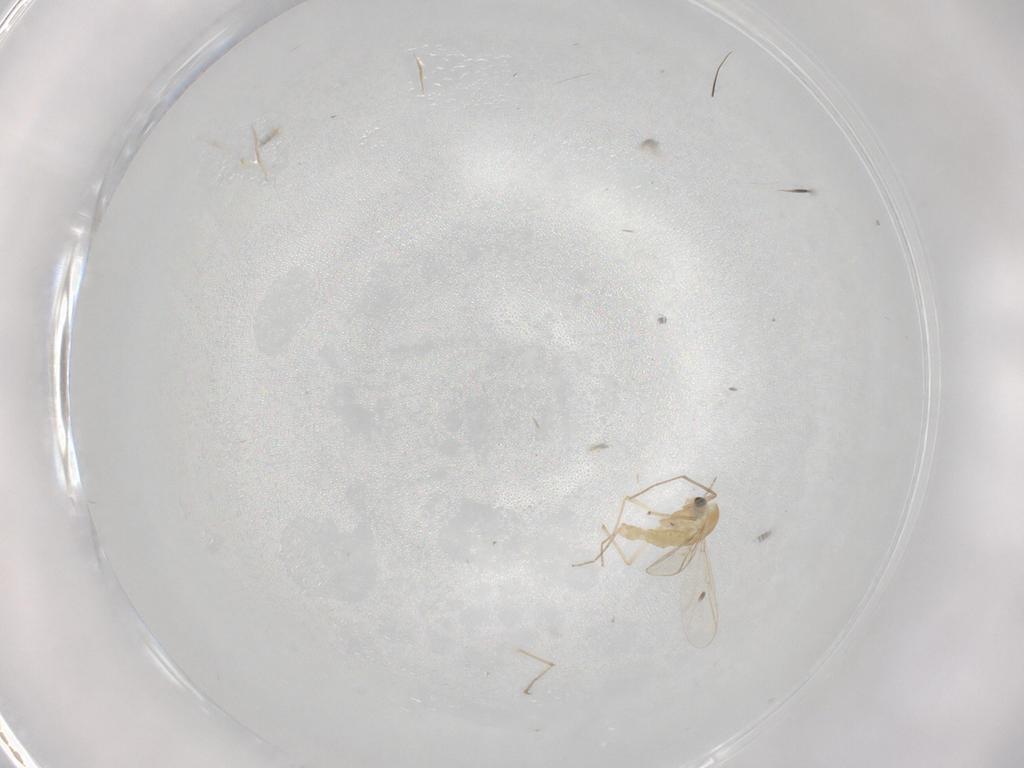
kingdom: Animalia
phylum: Arthropoda
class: Insecta
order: Diptera
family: Chironomidae
